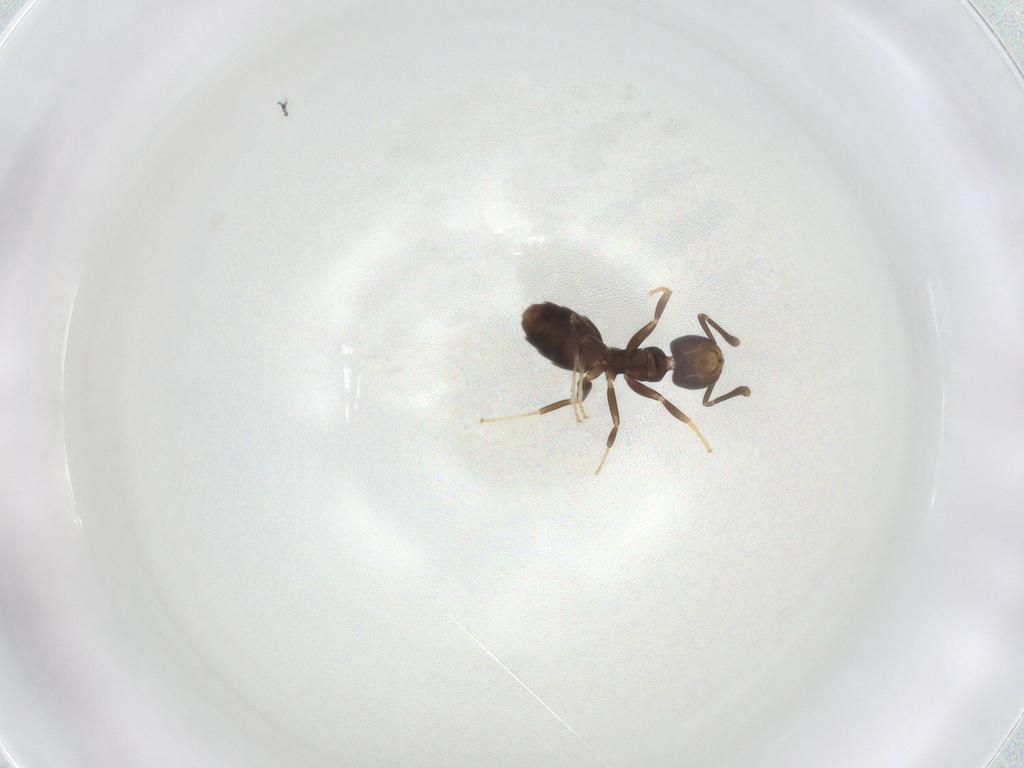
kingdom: Animalia
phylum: Arthropoda
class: Insecta
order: Hymenoptera
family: Formicidae
